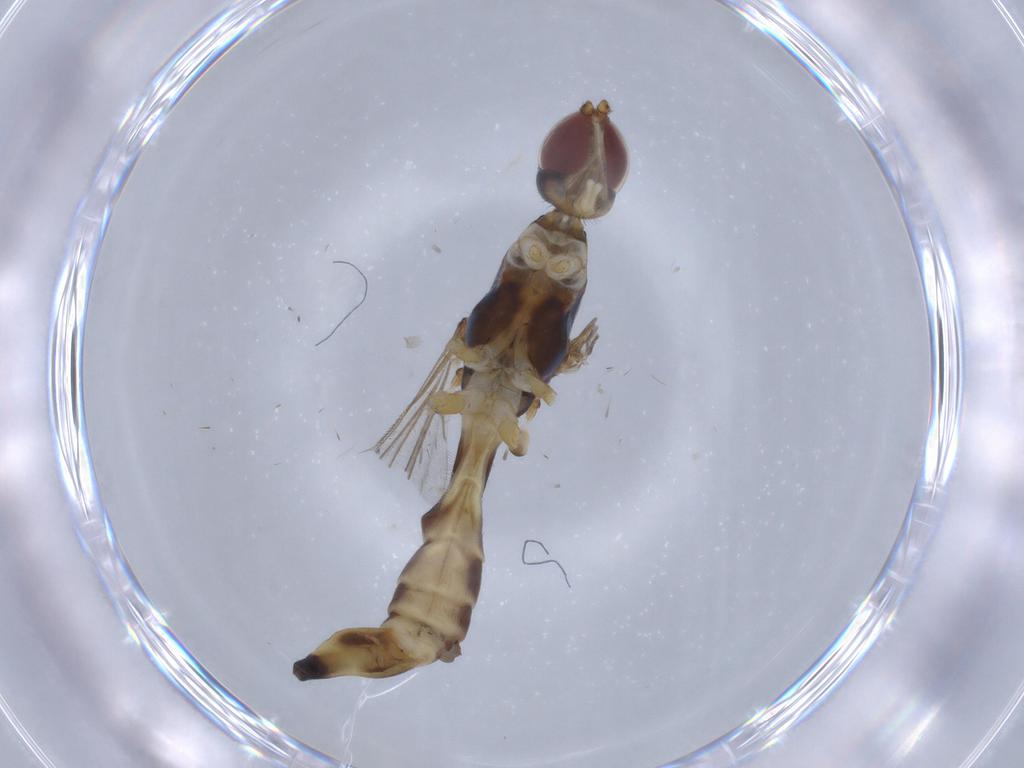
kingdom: Animalia
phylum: Arthropoda
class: Insecta
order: Diptera
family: Micropezidae
